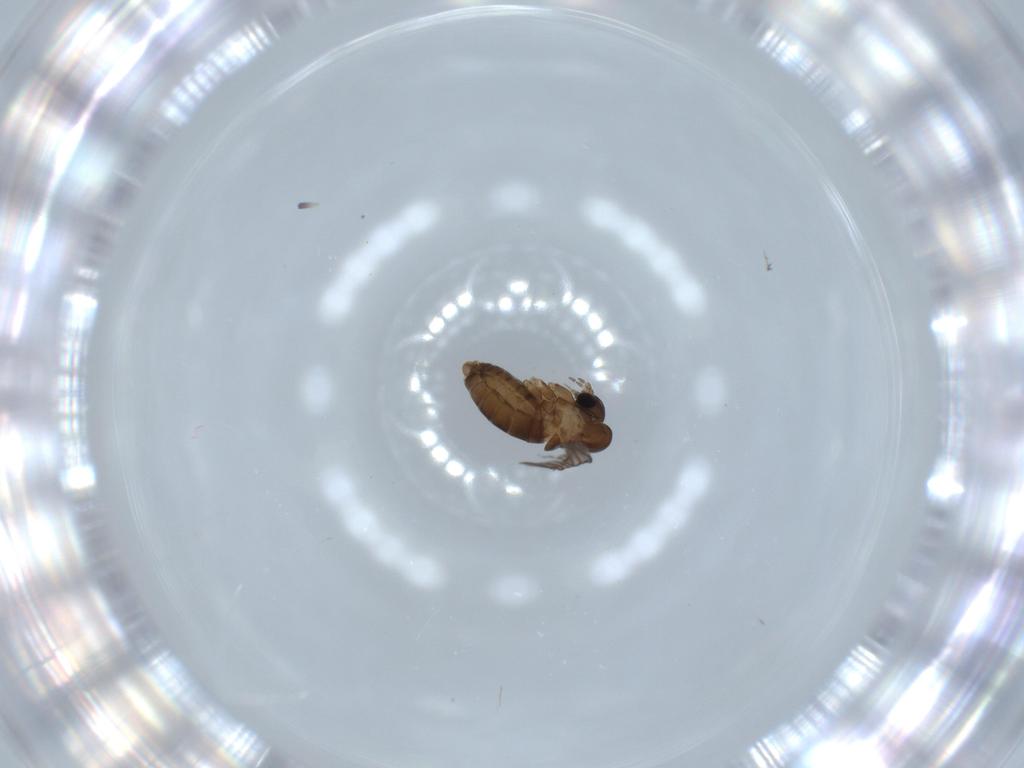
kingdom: Animalia
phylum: Arthropoda
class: Insecta
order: Diptera
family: Psychodidae
